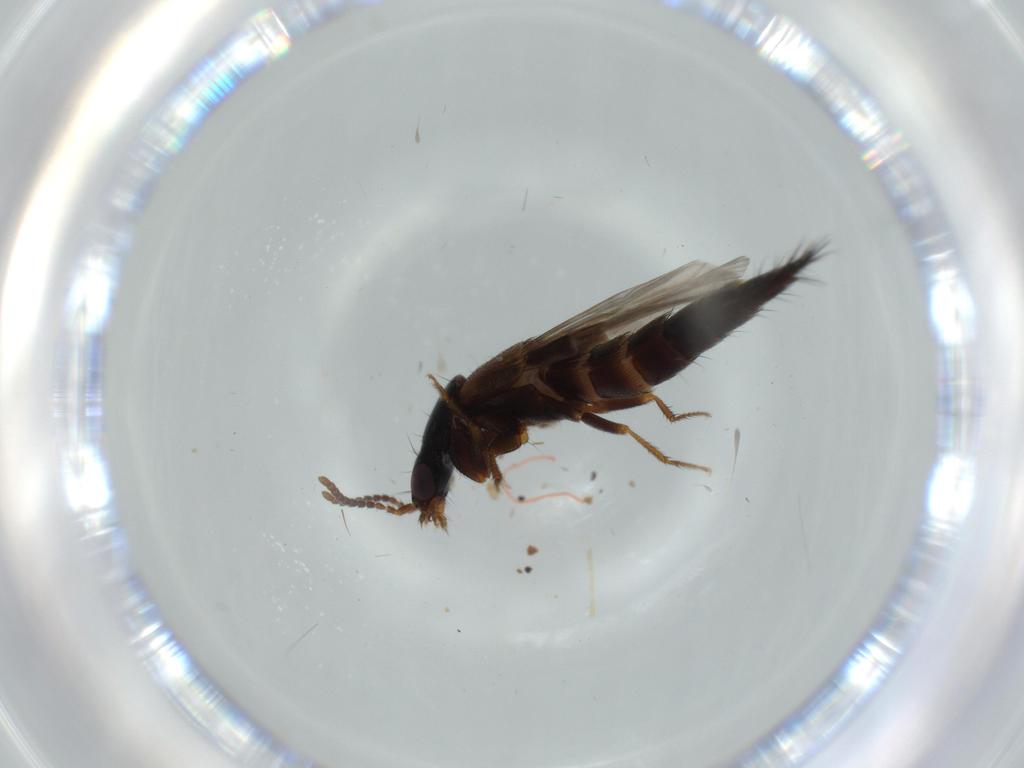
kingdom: Animalia
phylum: Arthropoda
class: Insecta
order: Coleoptera
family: Staphylinidae
